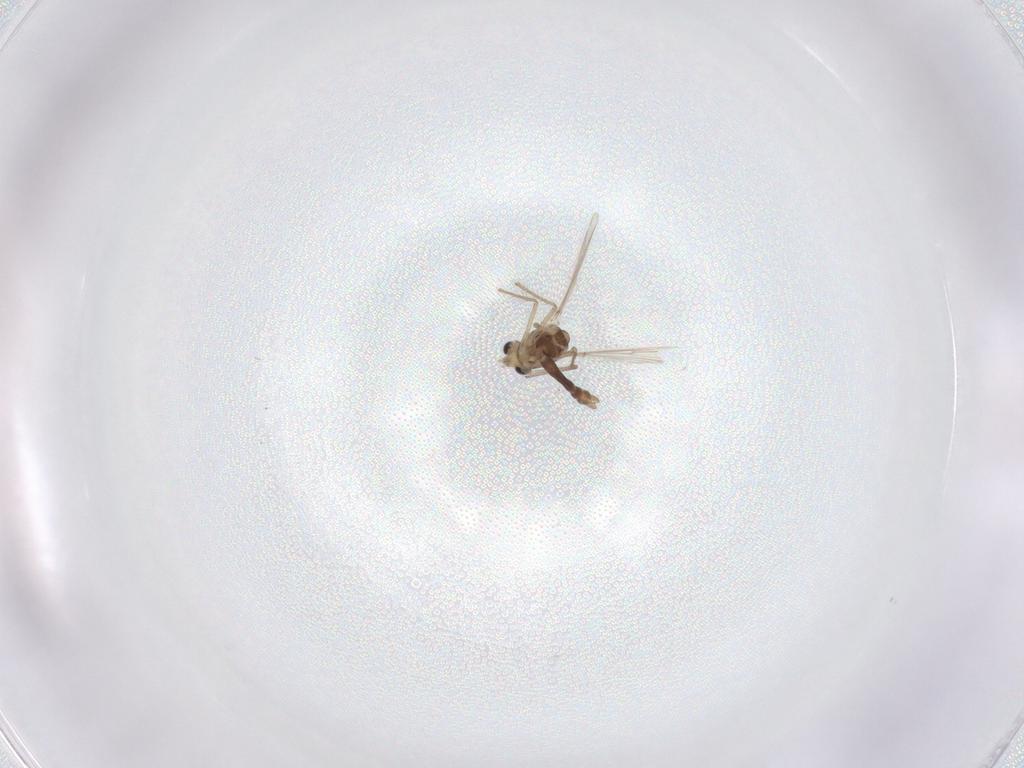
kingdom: Animalia
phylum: Arthropoda
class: Insecta
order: Diptera
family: Chironomidae
